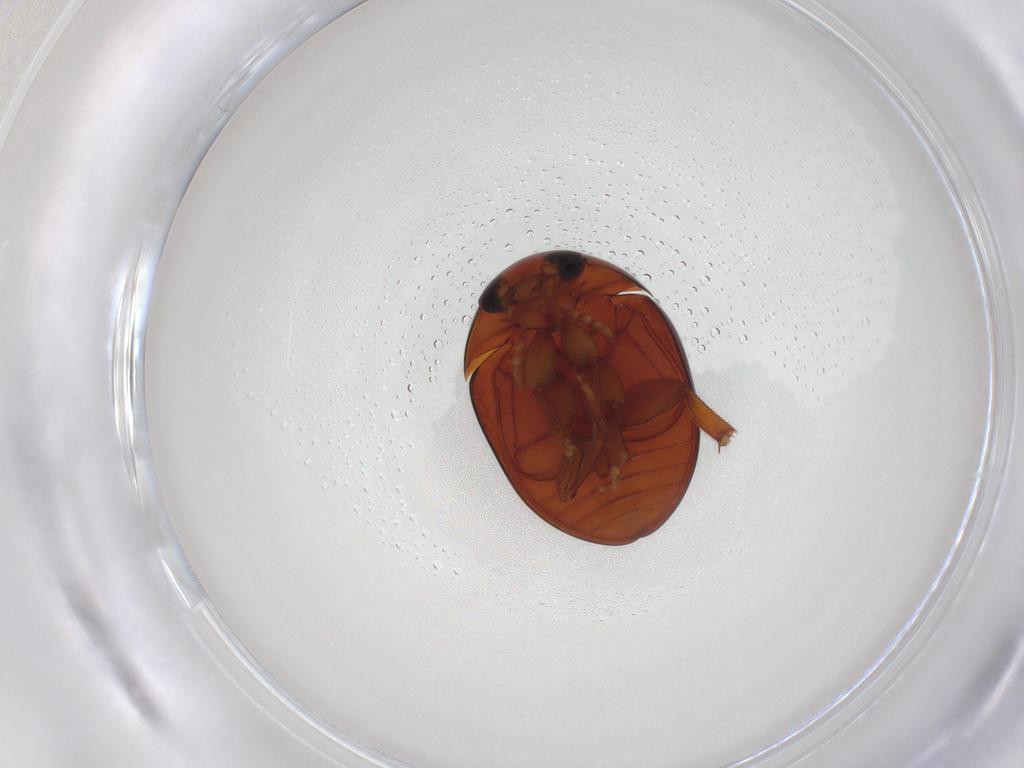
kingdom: Animalia
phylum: Arthropoda
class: Insecta
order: Coleoptera
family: Phalacridae
